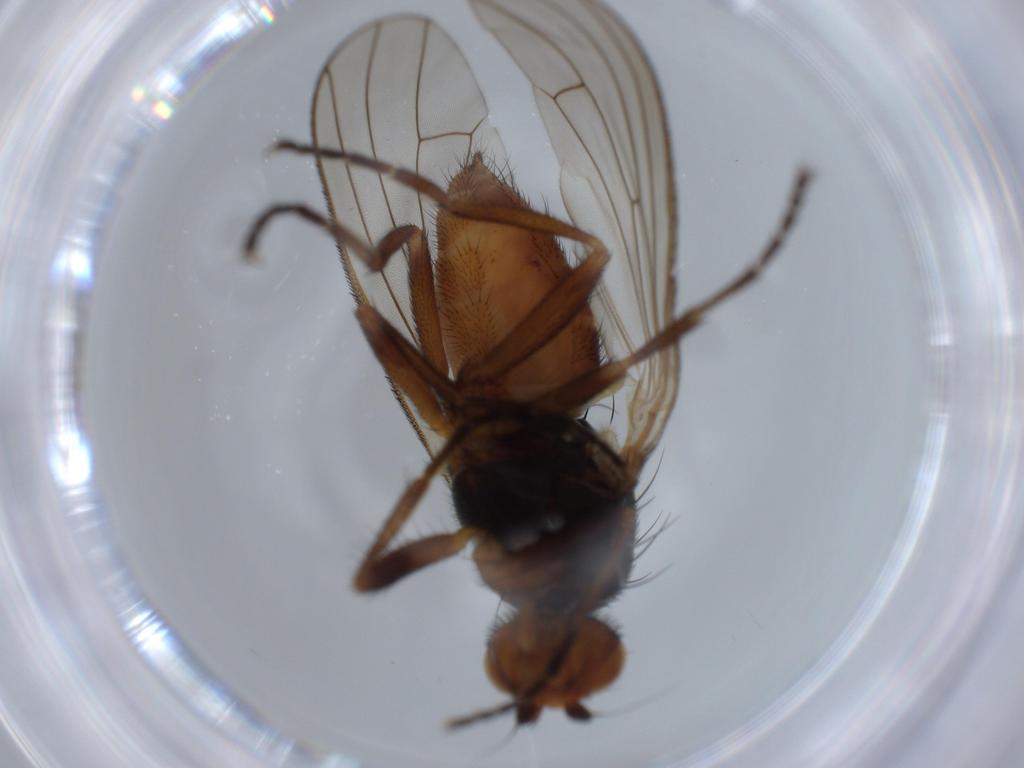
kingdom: Animalia
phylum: Arthropoda
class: Insecta
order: Diptera
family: Heleomyzidae
